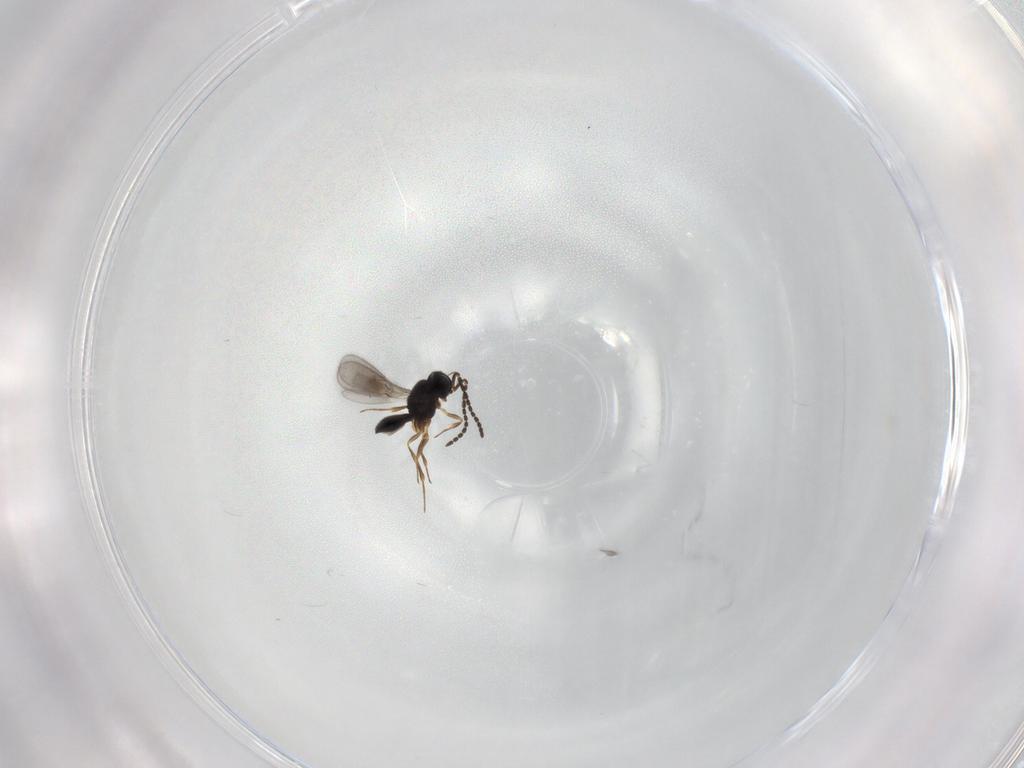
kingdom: Animalia
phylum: Arthropoda
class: Insecta
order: Hymenoptera
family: Scelionidae
